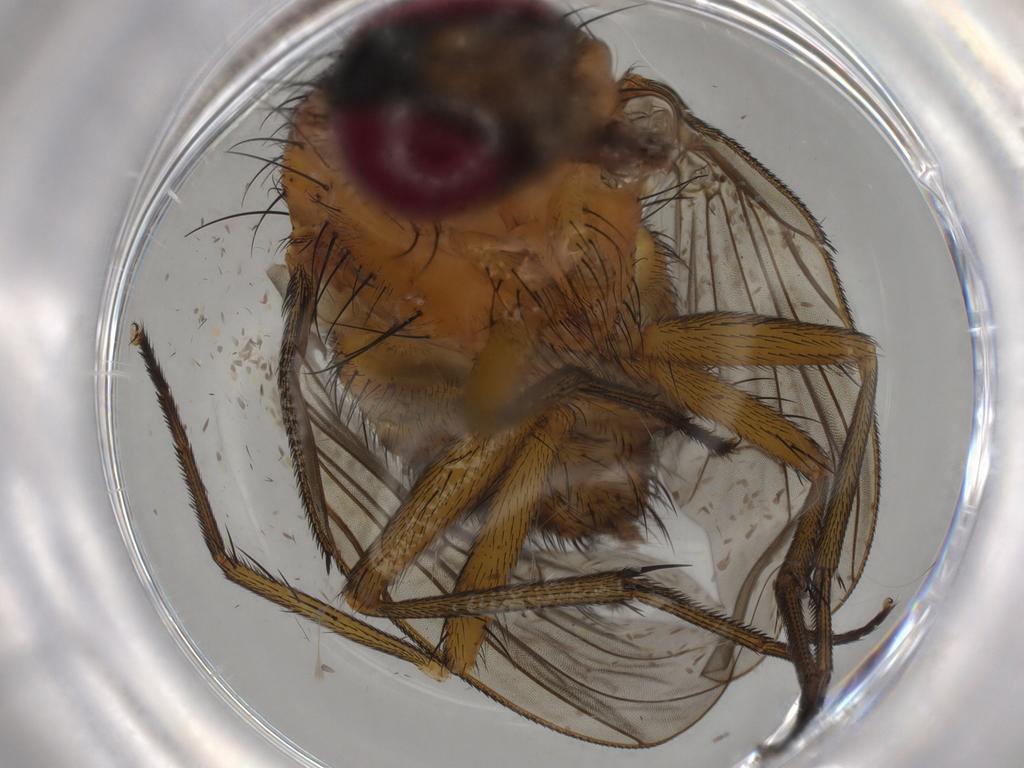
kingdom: Animalia
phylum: Arthropoda
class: Insecta
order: Diptera
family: Muscidae
